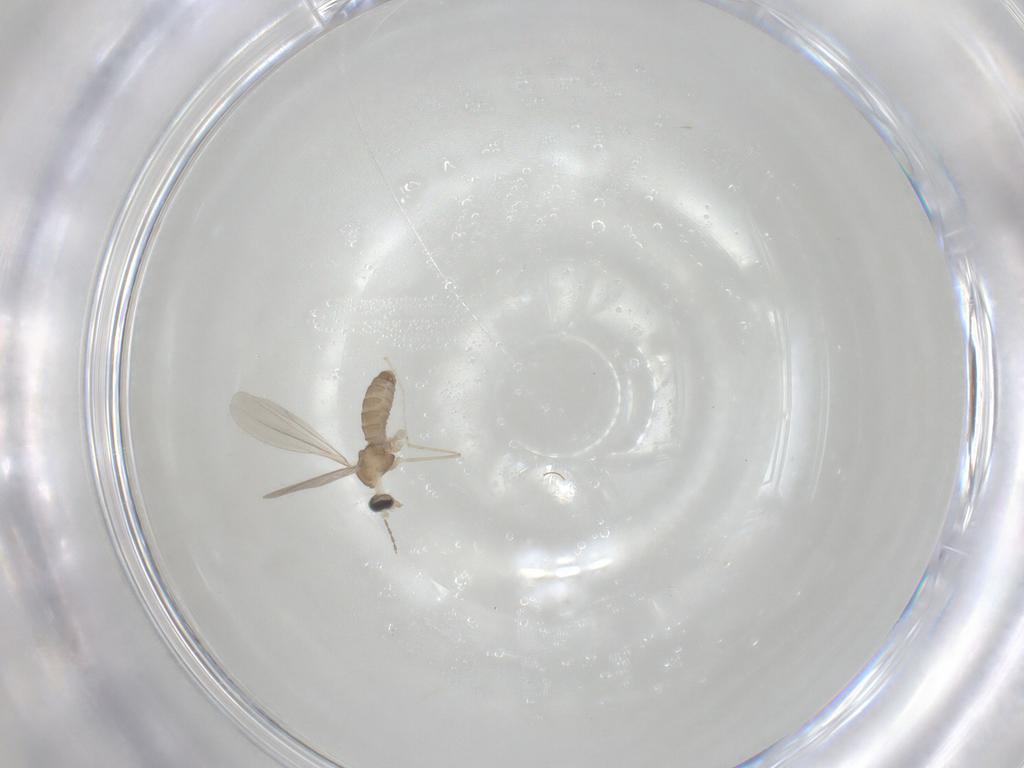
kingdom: Animalia
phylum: Arthropoda
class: Insecta
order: Diptera
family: Cecidomyiidae
